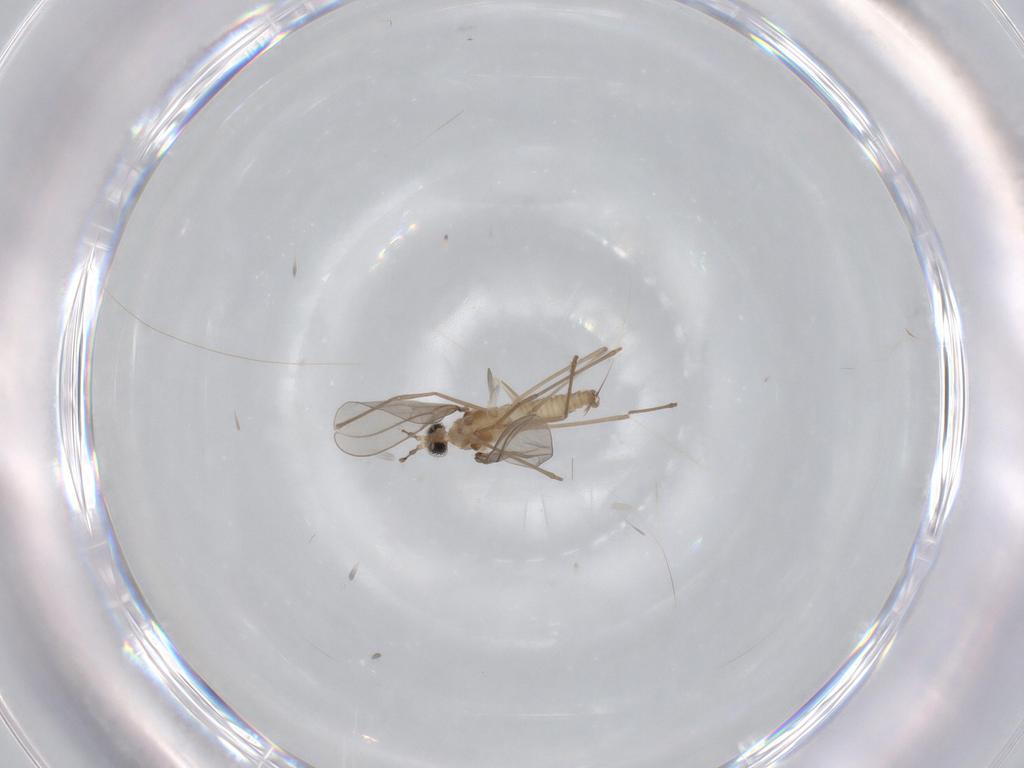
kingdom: Animalia
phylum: Arthropoda
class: Insecta
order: Diptera
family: Cecidomyiidae
